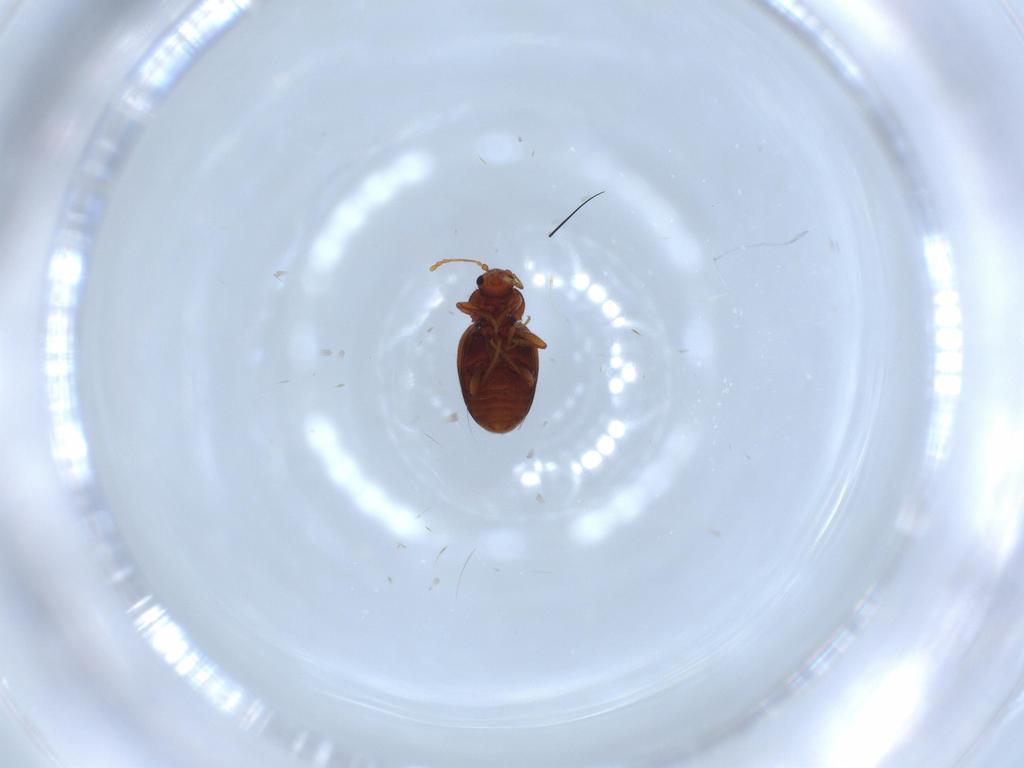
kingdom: Animalia
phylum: Arthropoda
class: Insecta
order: Coleoptera
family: Latridiidae
